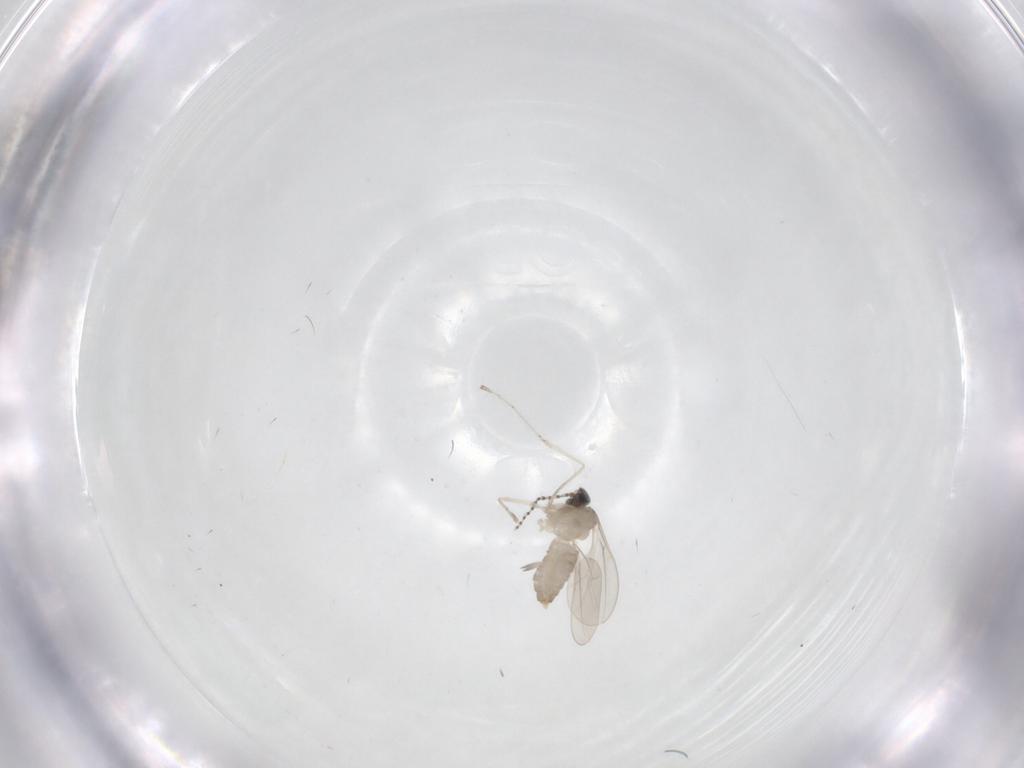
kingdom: Animalia
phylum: Arthropoda
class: Insecta
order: Diptera
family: Cecidomyiidae
